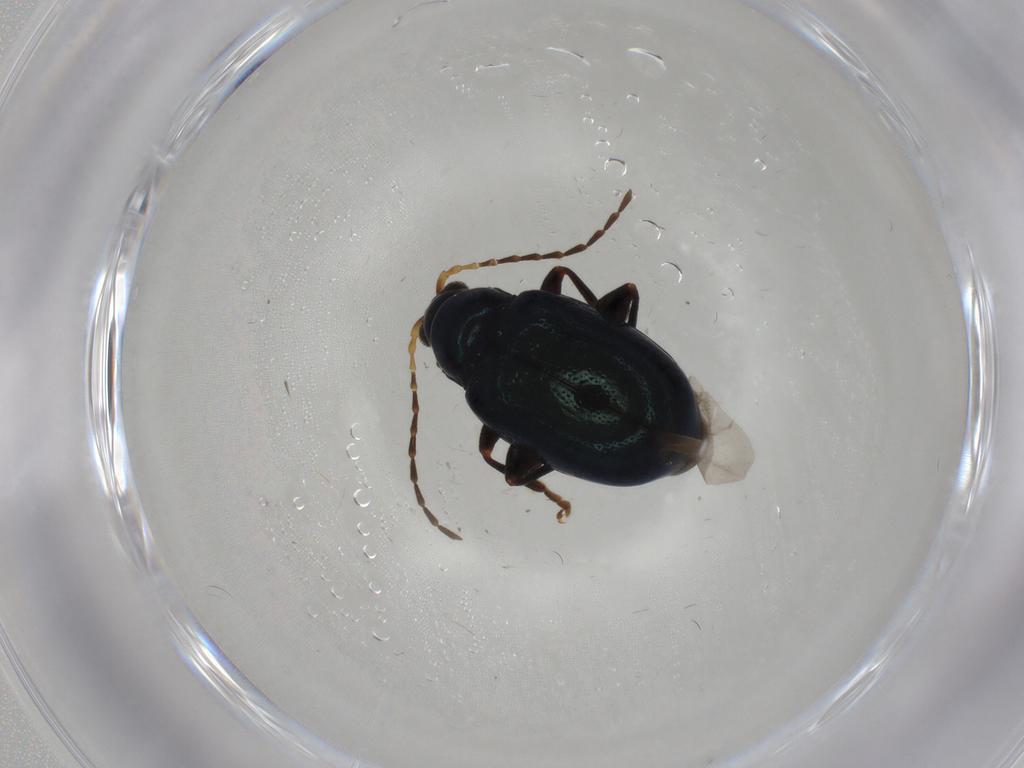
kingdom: Animalia
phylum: Arthropoda
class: Insecta
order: Coleoptera
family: Chrysomelidae
